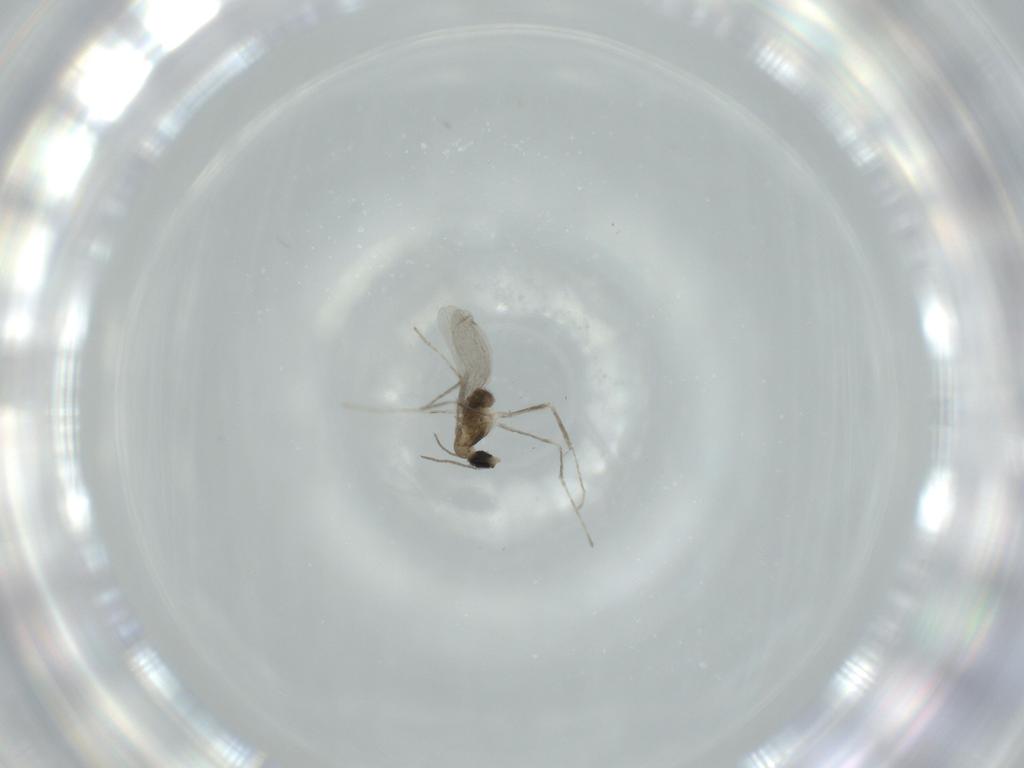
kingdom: Animalia
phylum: Arthropoda
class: Insecta
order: Diptera
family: Cecidomyiidae
